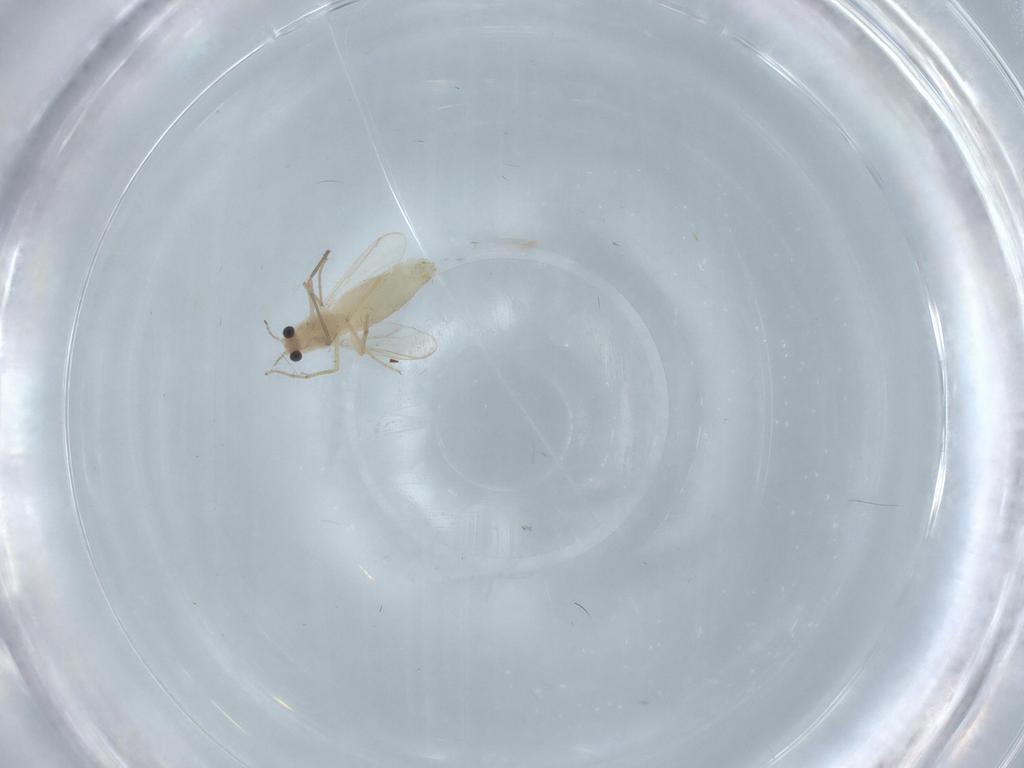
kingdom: Animalia
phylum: Arthropoda
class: Insecta
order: Diptera
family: Chironomidae
